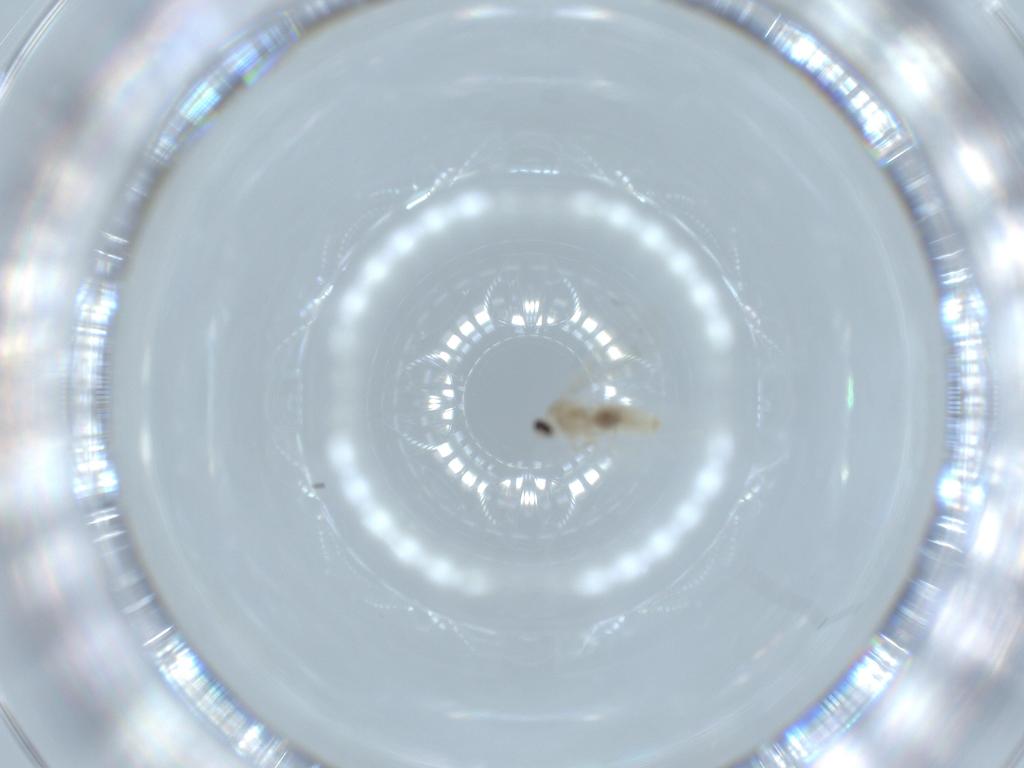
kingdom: Animalia
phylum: Arthropoda
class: Insecta
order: Diptera
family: Cecidomyiidae
